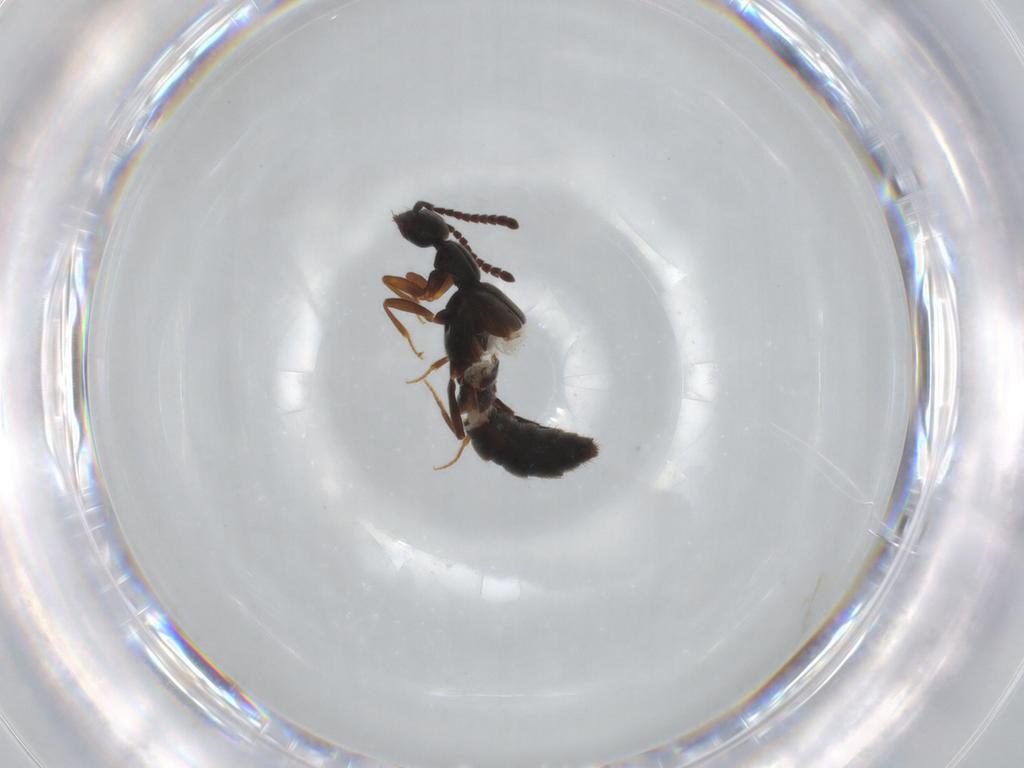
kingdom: Animalia
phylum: Arthropoda
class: Insecta
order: Coleoptera
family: Staphylinidae
